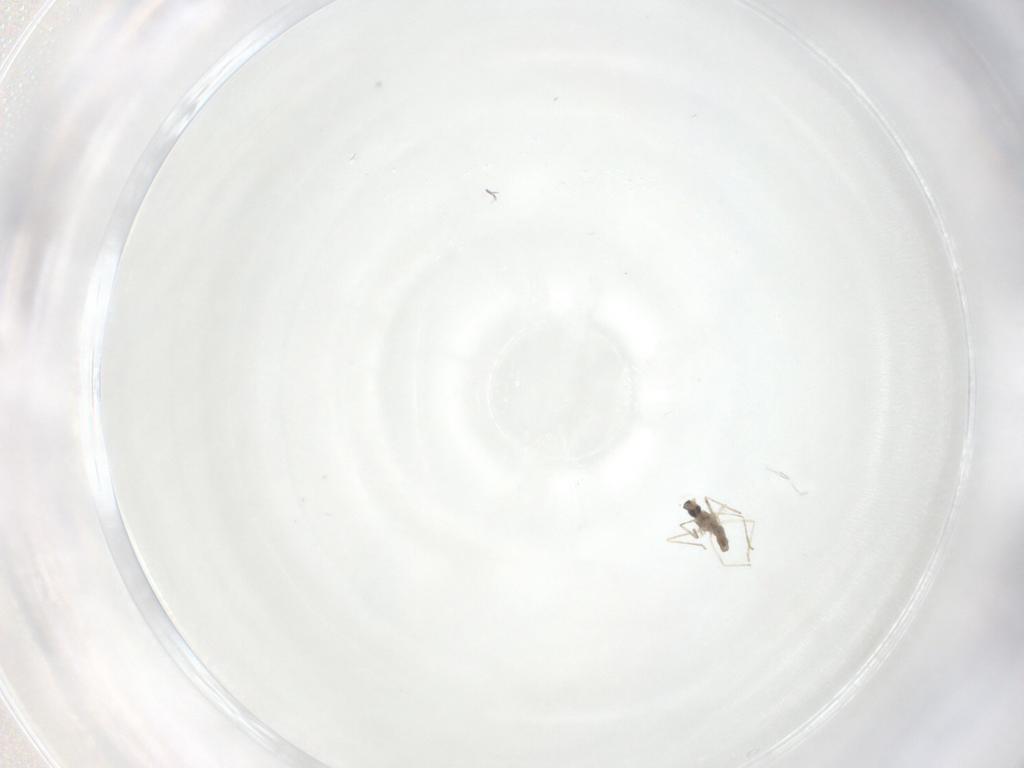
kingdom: Animalia
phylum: Arthropoda
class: Insecta
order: Diptera
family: Cecidomyiidae
